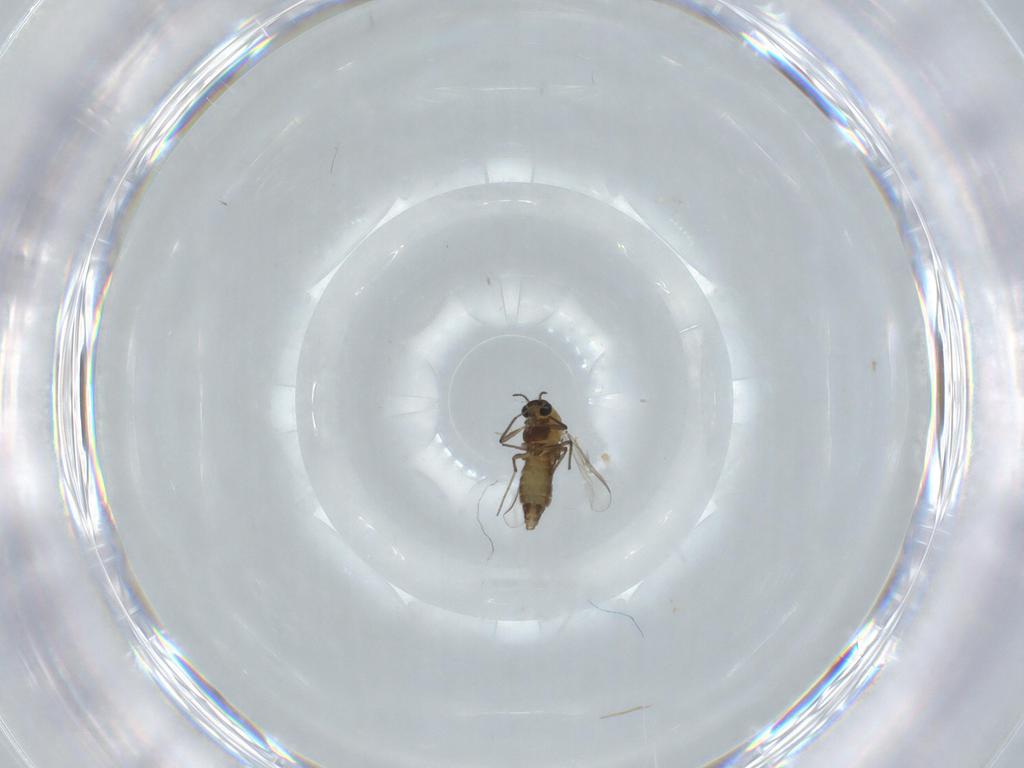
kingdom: Animalia
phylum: Arthropoda
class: Insecta
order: Diptera
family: Chironomidae
